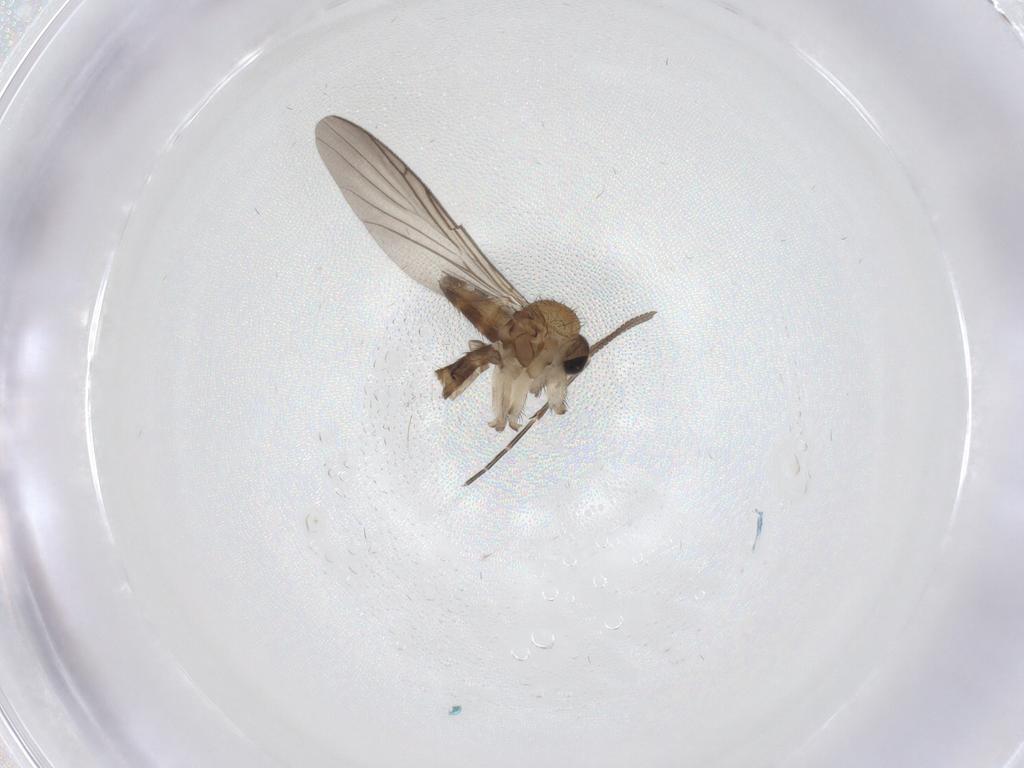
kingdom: Animalia
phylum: Arthropoda
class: Insecta
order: Diptera
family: Keroplatidae
